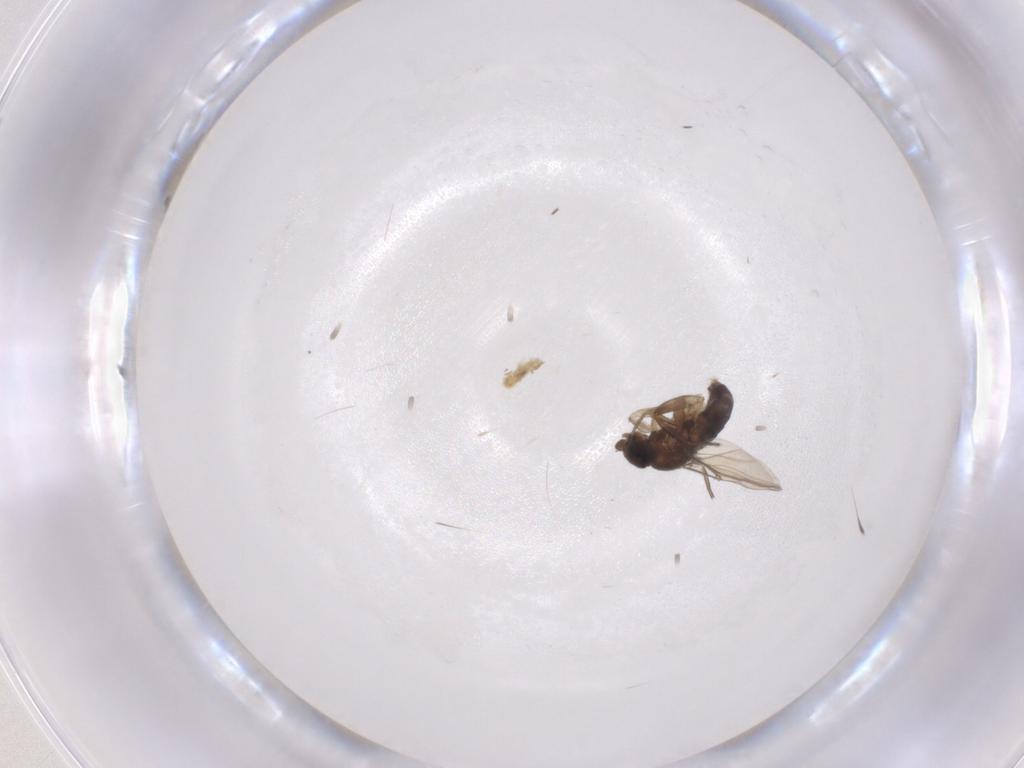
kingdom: Animalia
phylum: Arthropoda
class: Insecta
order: Diptera
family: Phoridae
